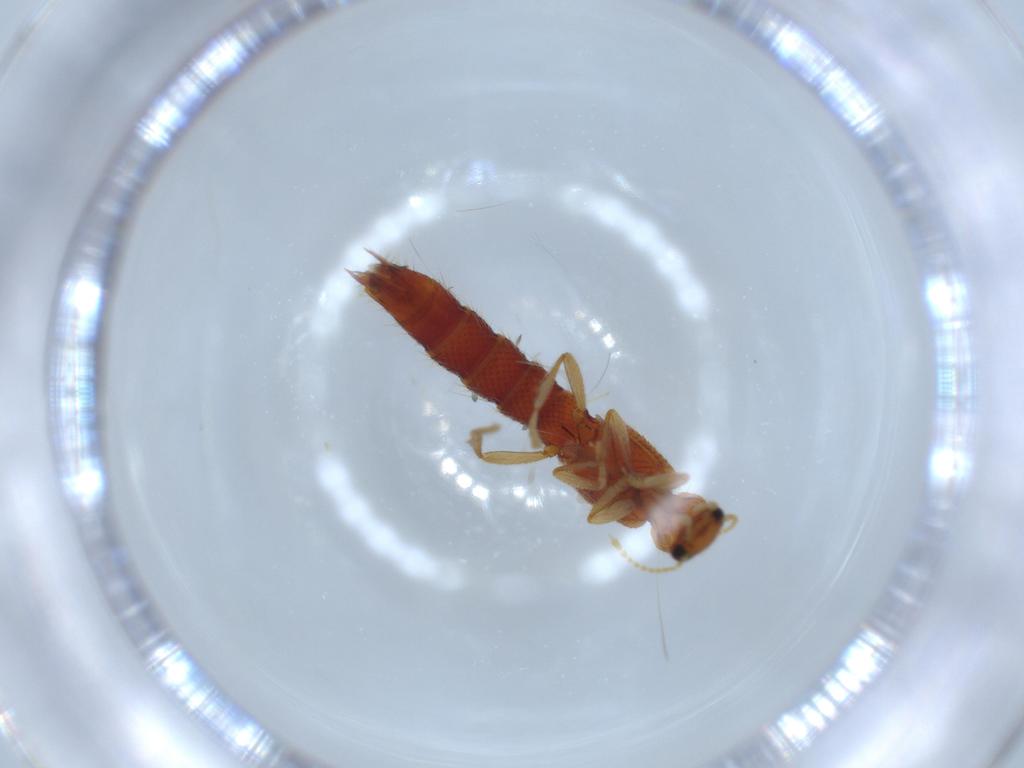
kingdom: Animalia
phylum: Arthropoda
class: Insecta
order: Coleoptera
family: Staphylinidae
